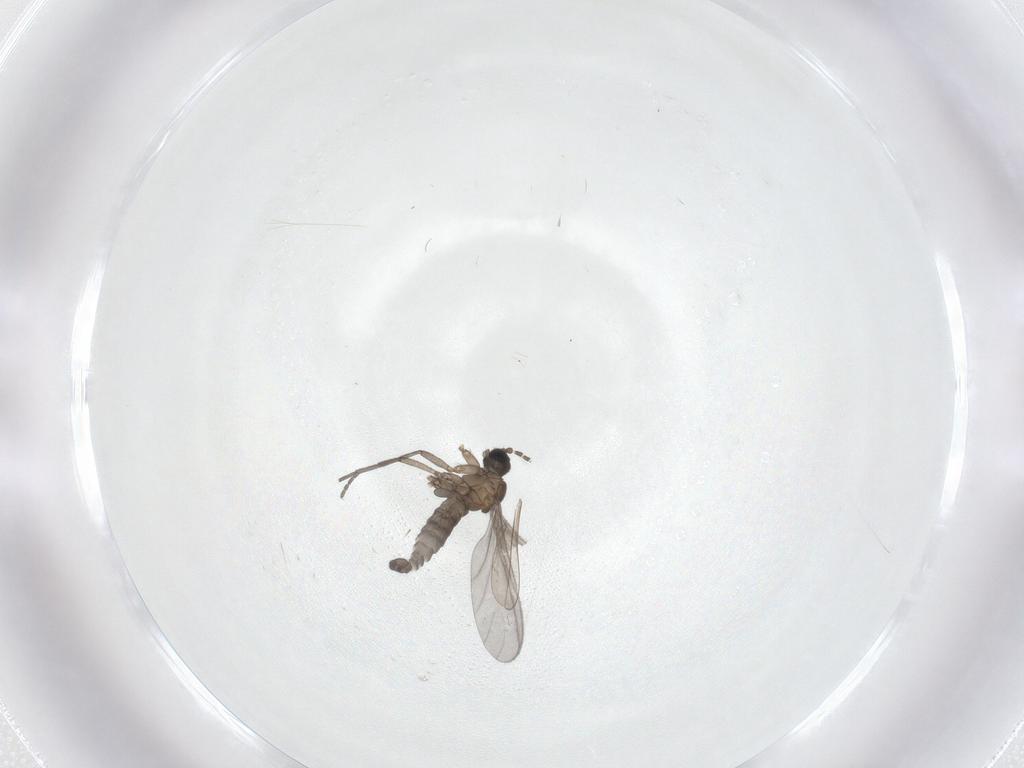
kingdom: Animalia
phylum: Arthropoda
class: Insecta
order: Diptera
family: Sciaridae
